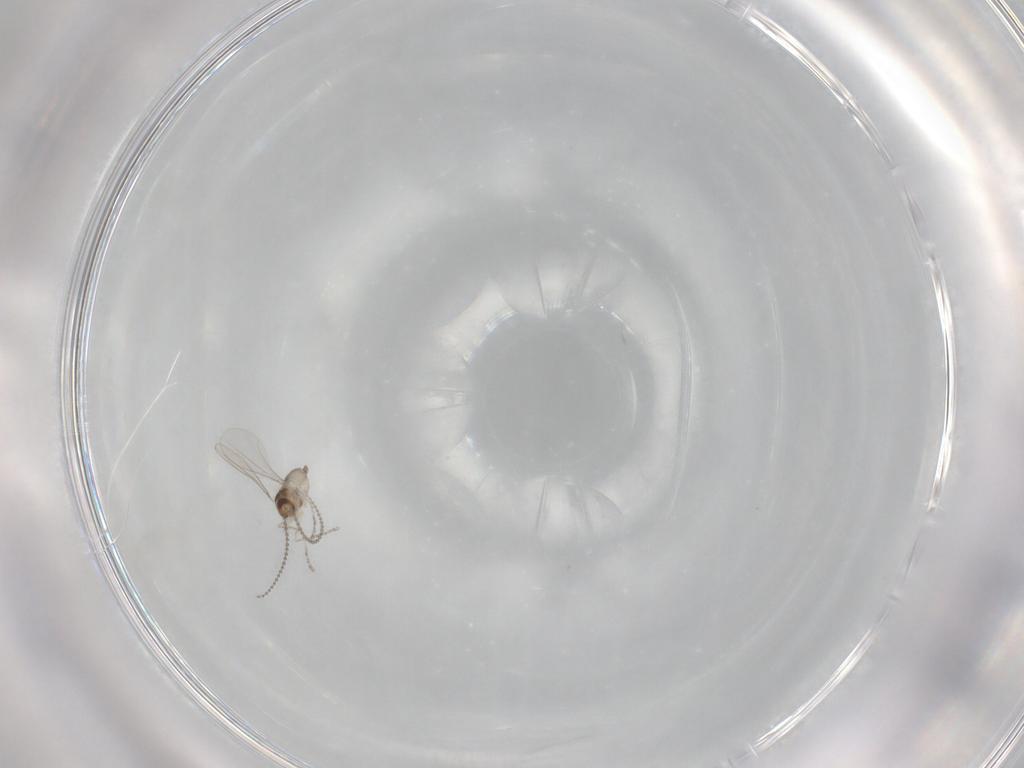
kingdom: Animalia
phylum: Arthropoda
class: Insecta
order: Diptera
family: Cecidomyiidae
